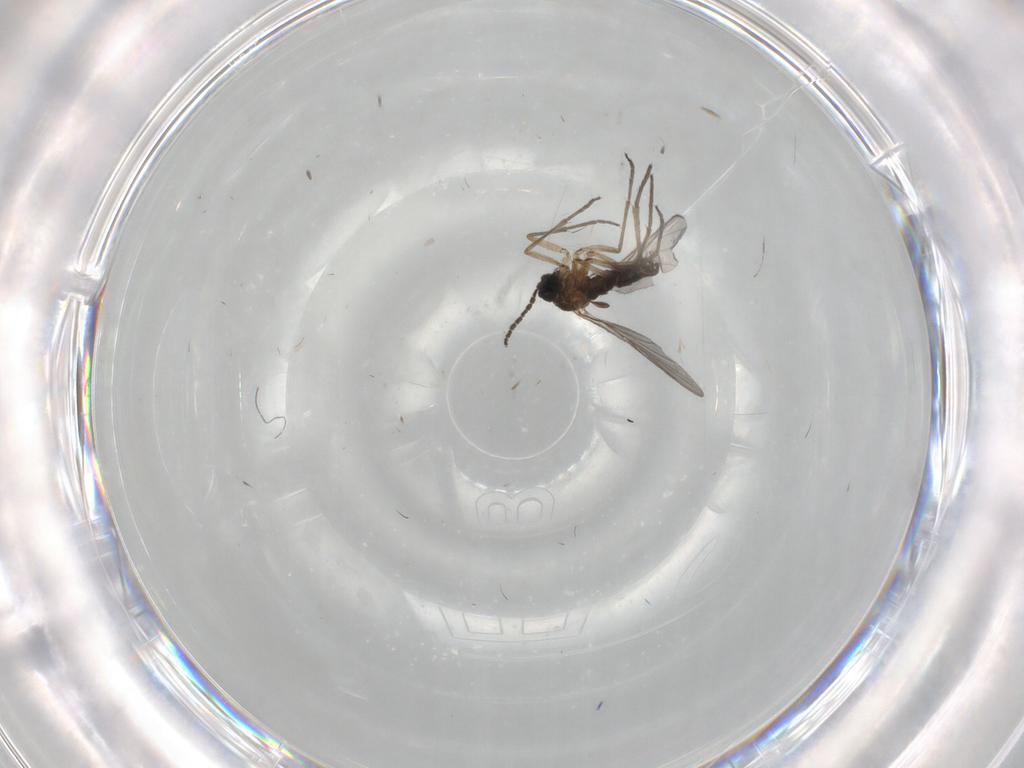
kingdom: Animalia
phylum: Arthropoda
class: Insecta
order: Diptera
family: Sciaridae
